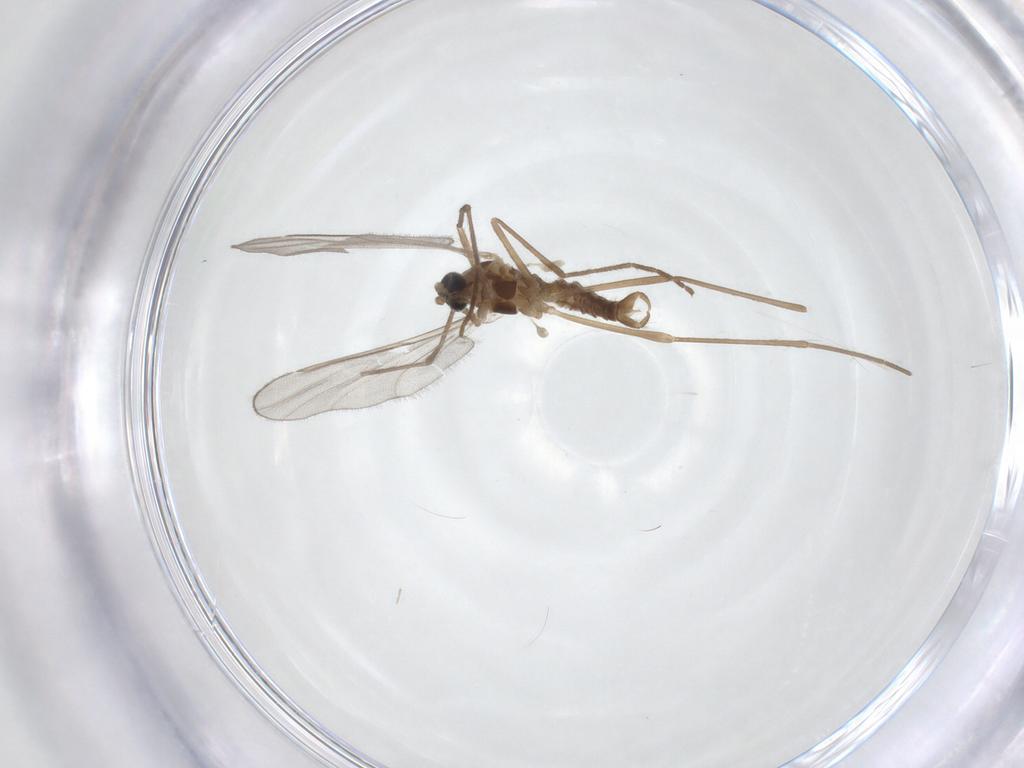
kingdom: Animalia
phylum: Arthropoda
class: Insecta
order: Diptera
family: Cecidomyiidae
